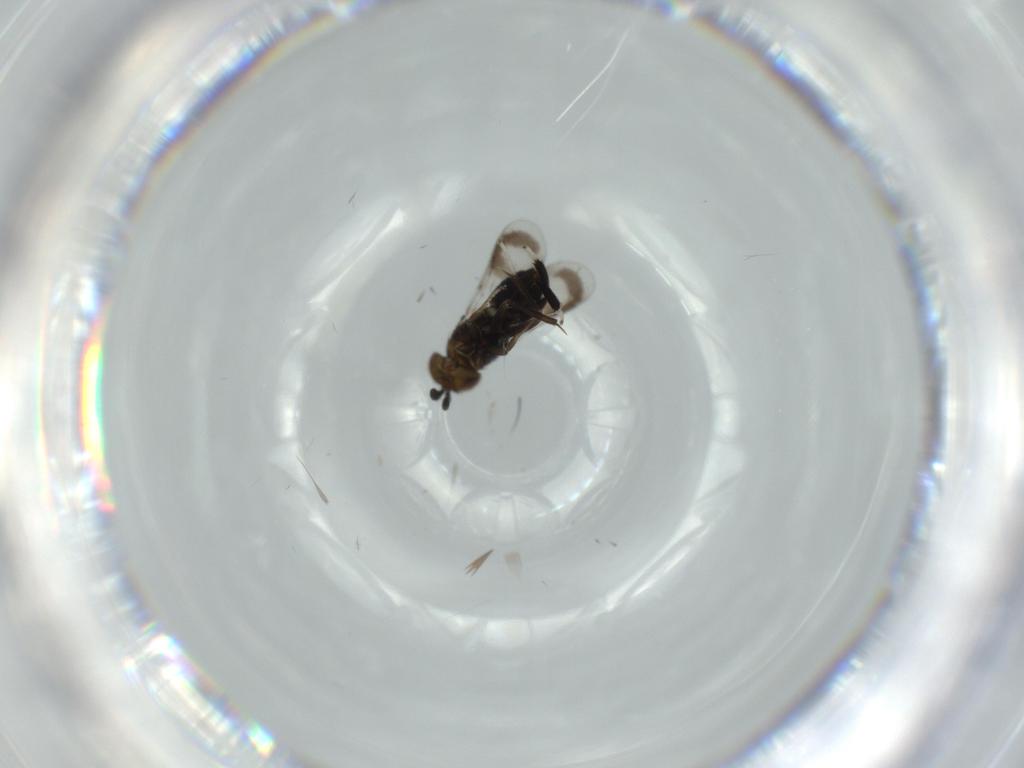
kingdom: Animalia
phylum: Arthropoda
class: Insecta
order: Hymenoptera
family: Aphelinidae
